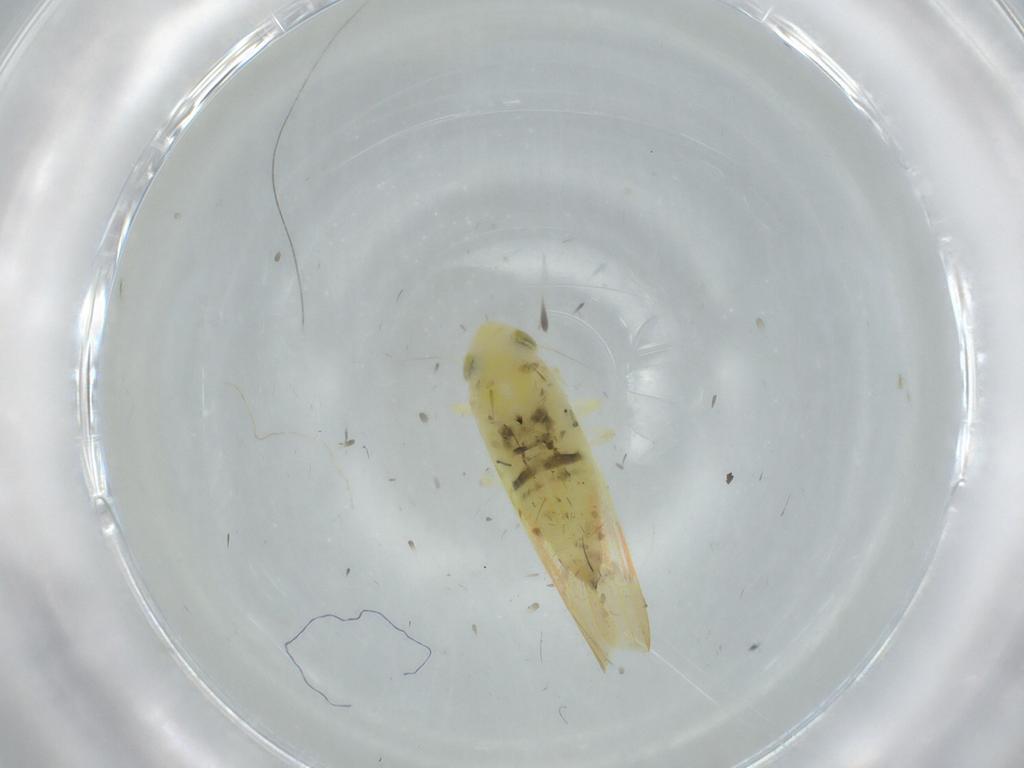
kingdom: Animalia
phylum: Arthropoda
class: Insecta
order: Hemiptera
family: Cicadellidae
